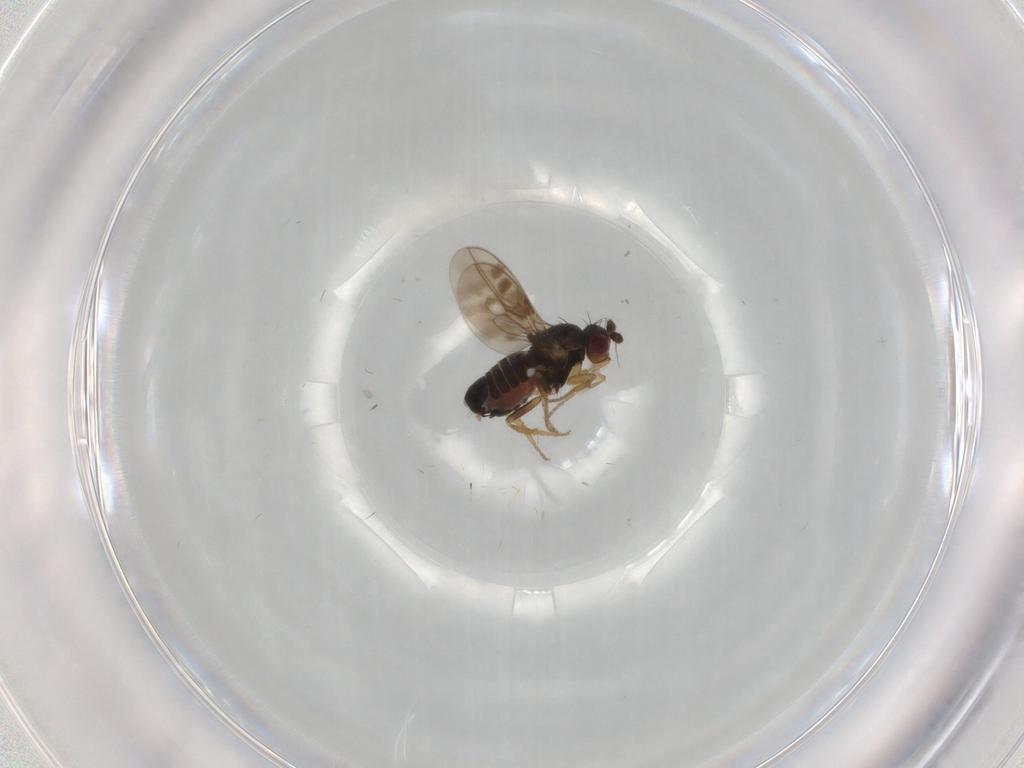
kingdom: Animalia
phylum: Arthropoda
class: Insecta
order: Diptera
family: Sphaeroceridae
